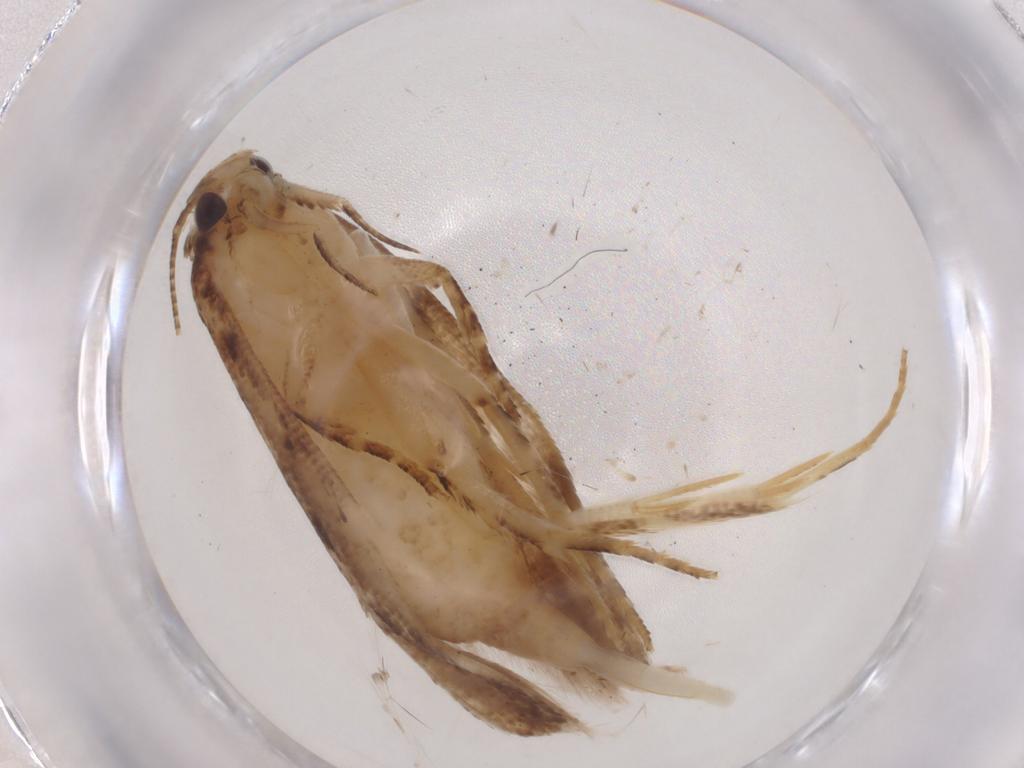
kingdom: Animalia
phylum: Arthropoda
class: Insecta
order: Lepidoptera
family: Gelechiidae
